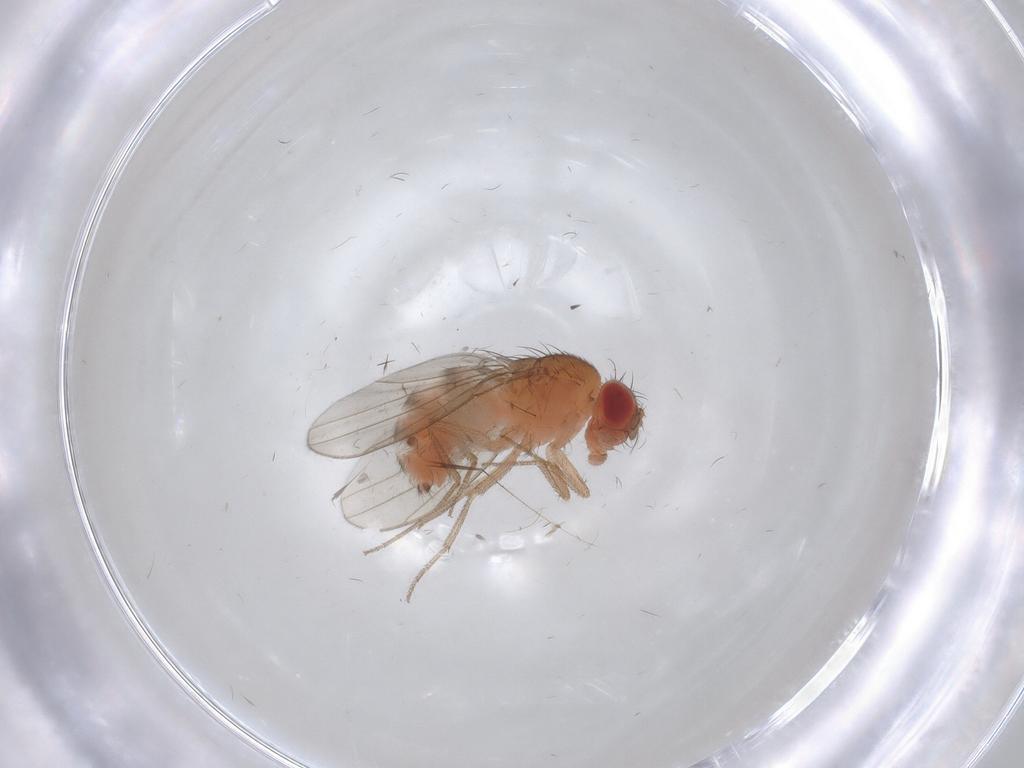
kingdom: Animalia
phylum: Arthropoda
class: Insecta
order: Diptera
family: Drosophilidae
